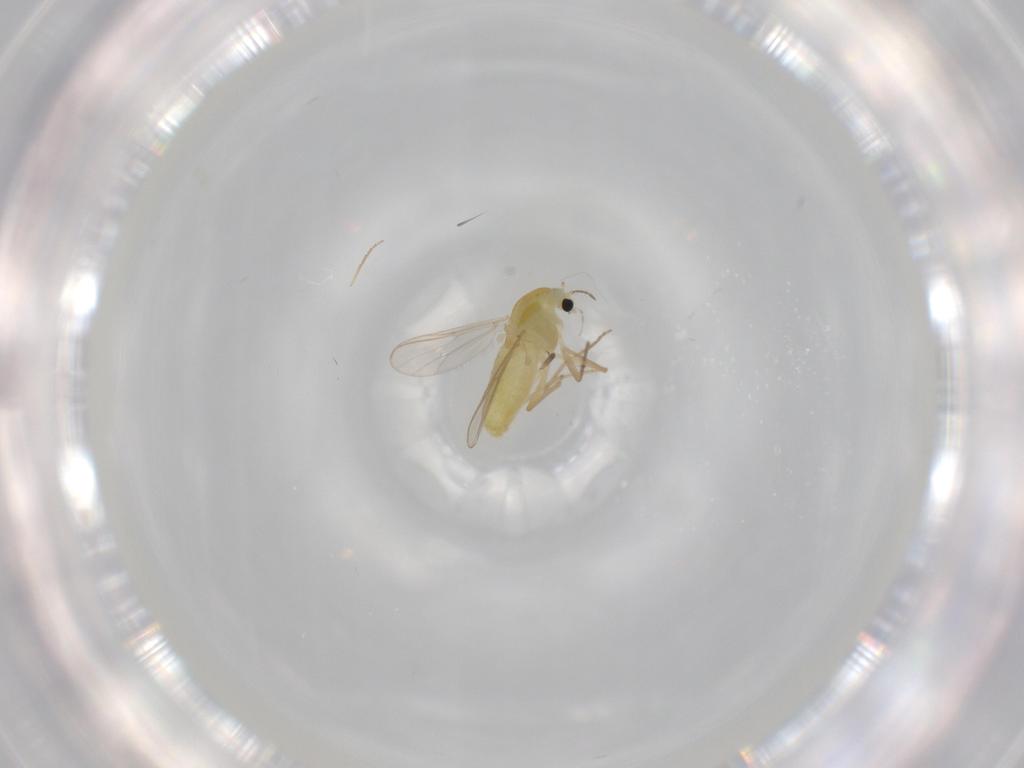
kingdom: Animalia
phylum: Arthropoda
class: Insecta
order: Diptera
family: Chironomidae
